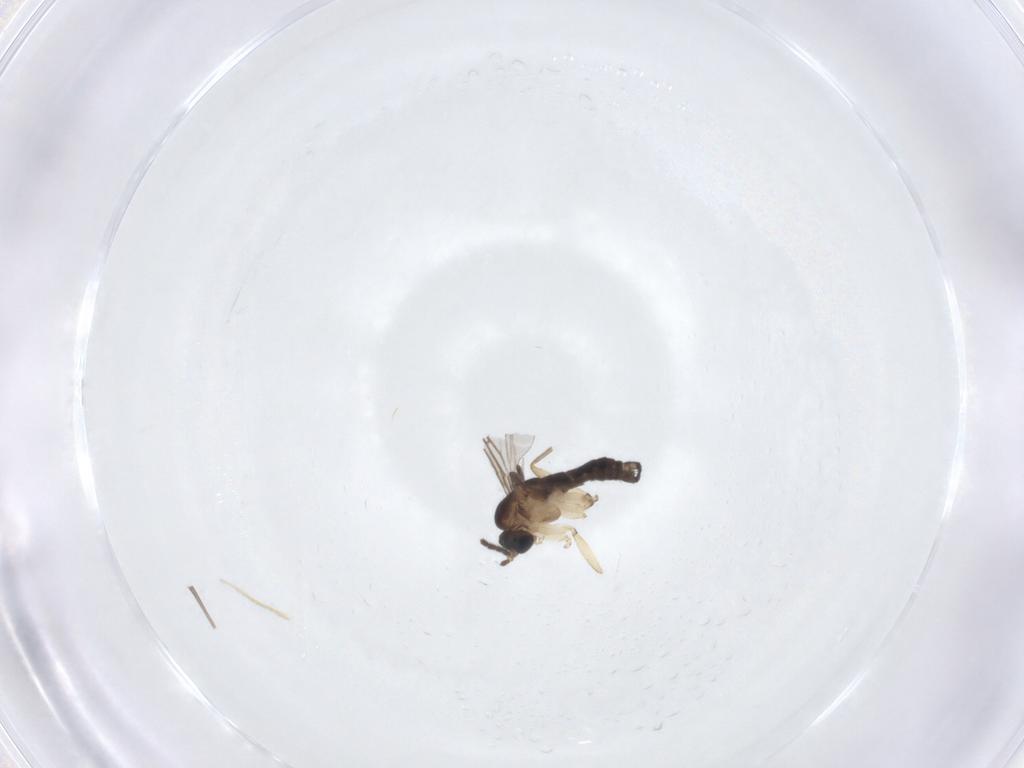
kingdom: Animalia
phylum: Arthropoda
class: Insecta
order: Diptera
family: Sciaridae
